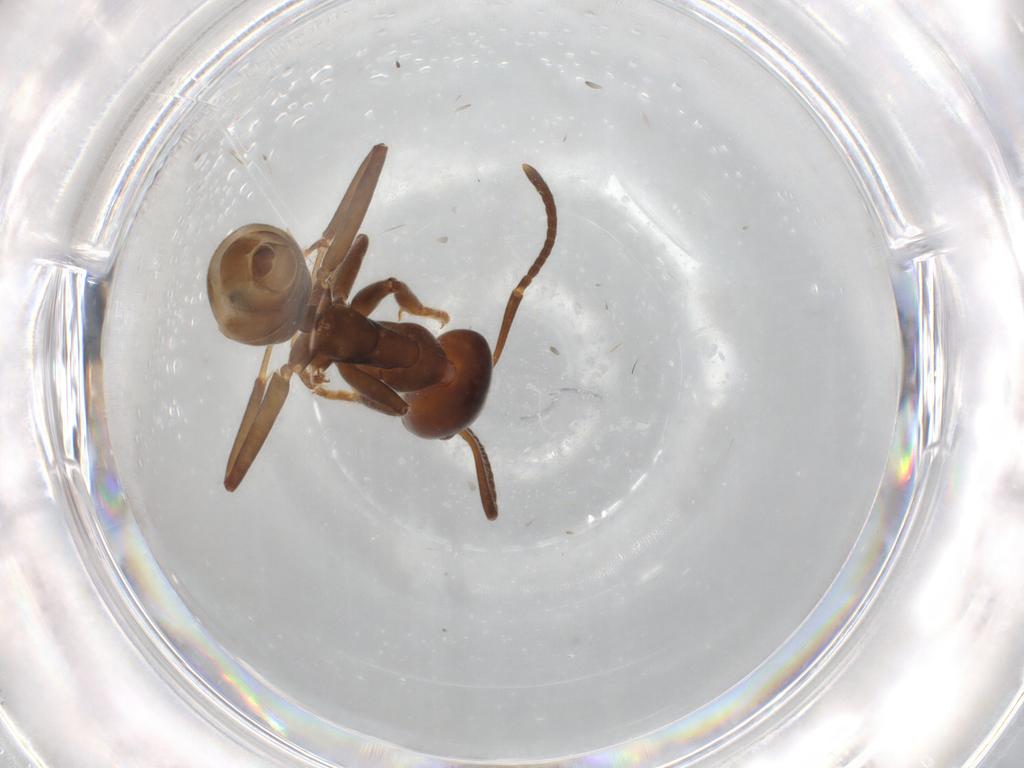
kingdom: Animalia
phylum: Arthropoda
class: Insecta
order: Hymenoptera
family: Formicidae
